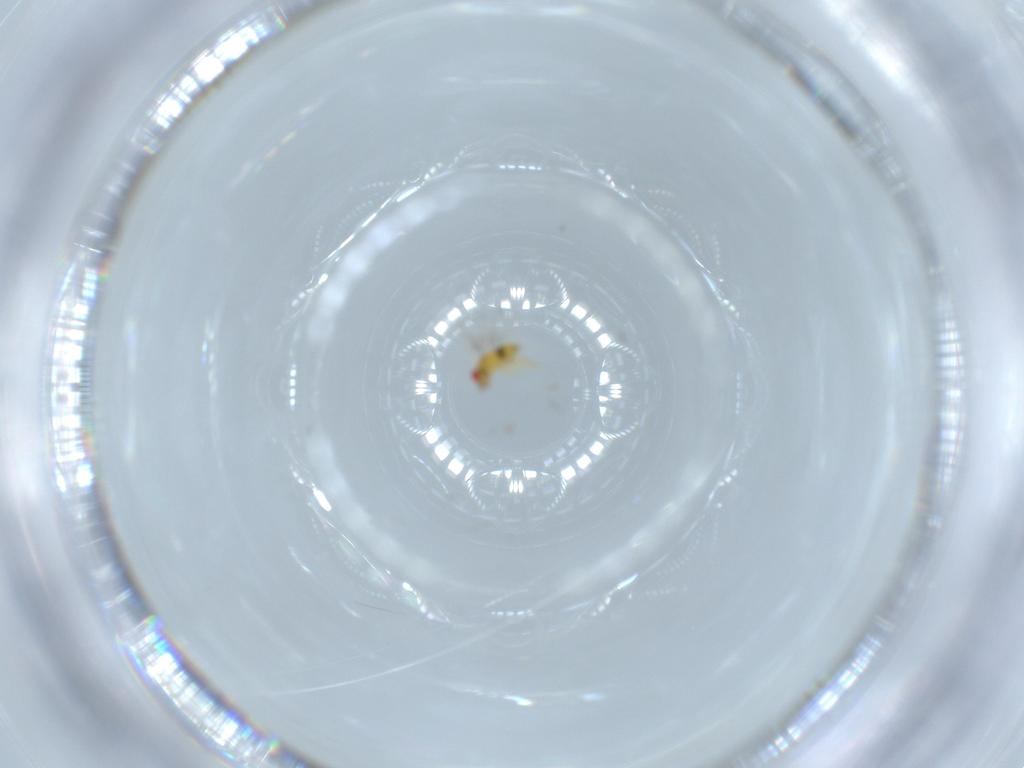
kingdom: Animalia
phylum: Arthropoda
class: Insecta
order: Hymenoptera
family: Trichogrammatidae
